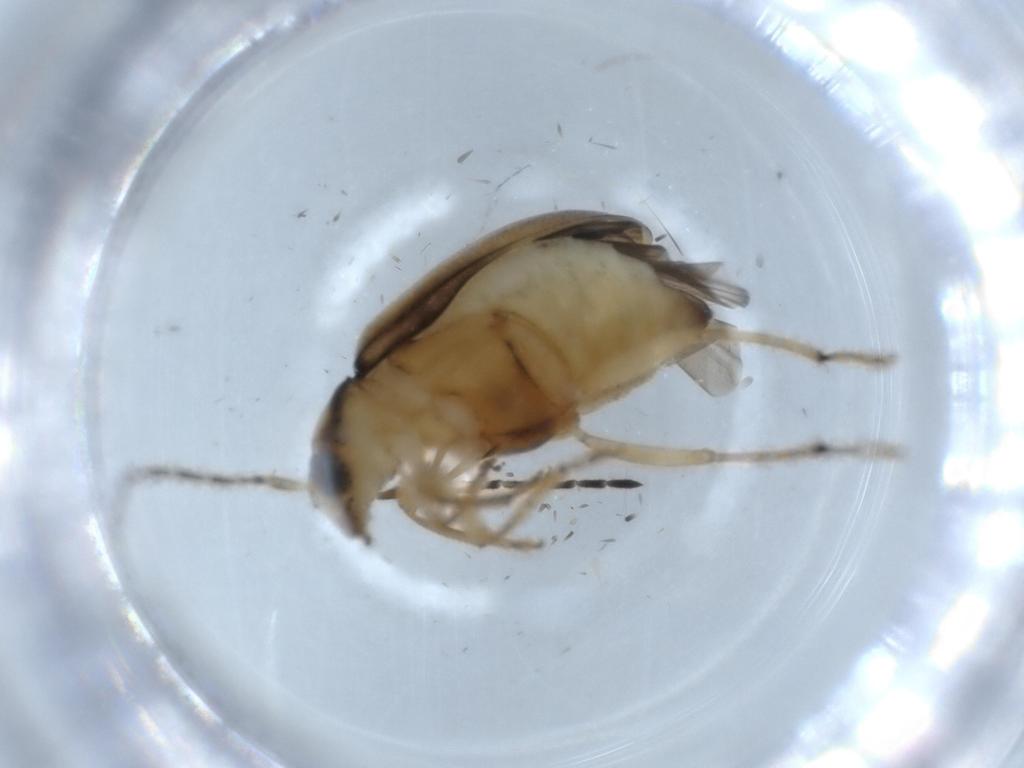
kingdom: Animalia
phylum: Arthropoda
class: Insecta
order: Coleoptera
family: Chrysomelidae
